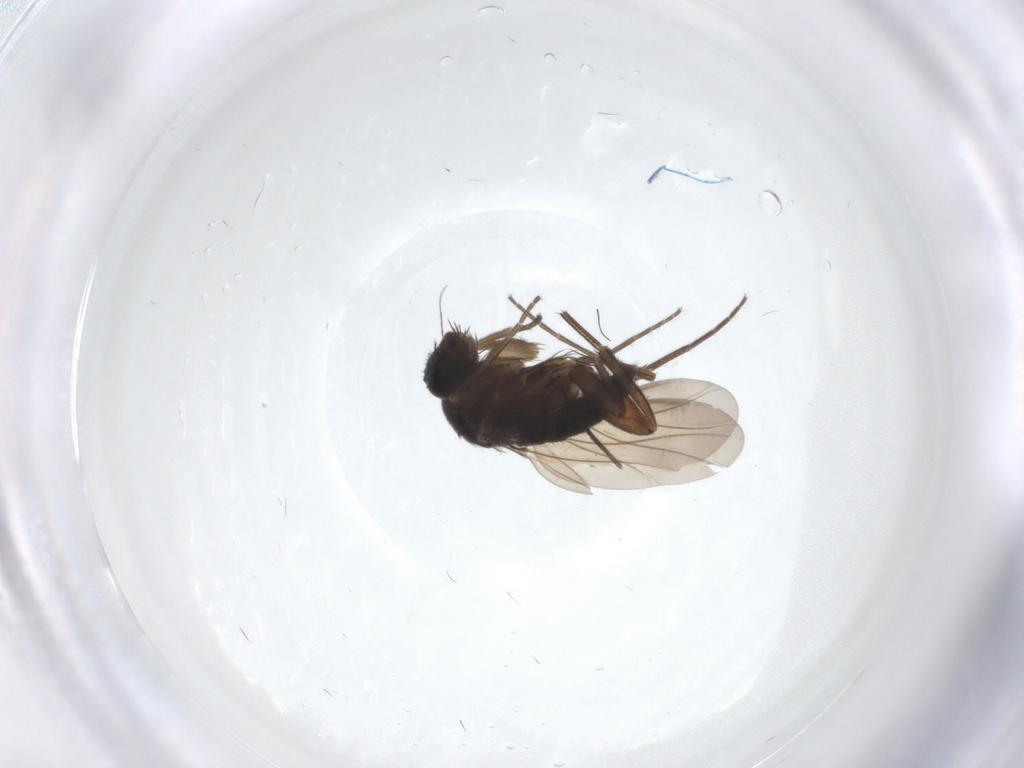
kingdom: Animalia
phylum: Arthropoda
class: Insecta
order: Diptera
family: Phoridae
